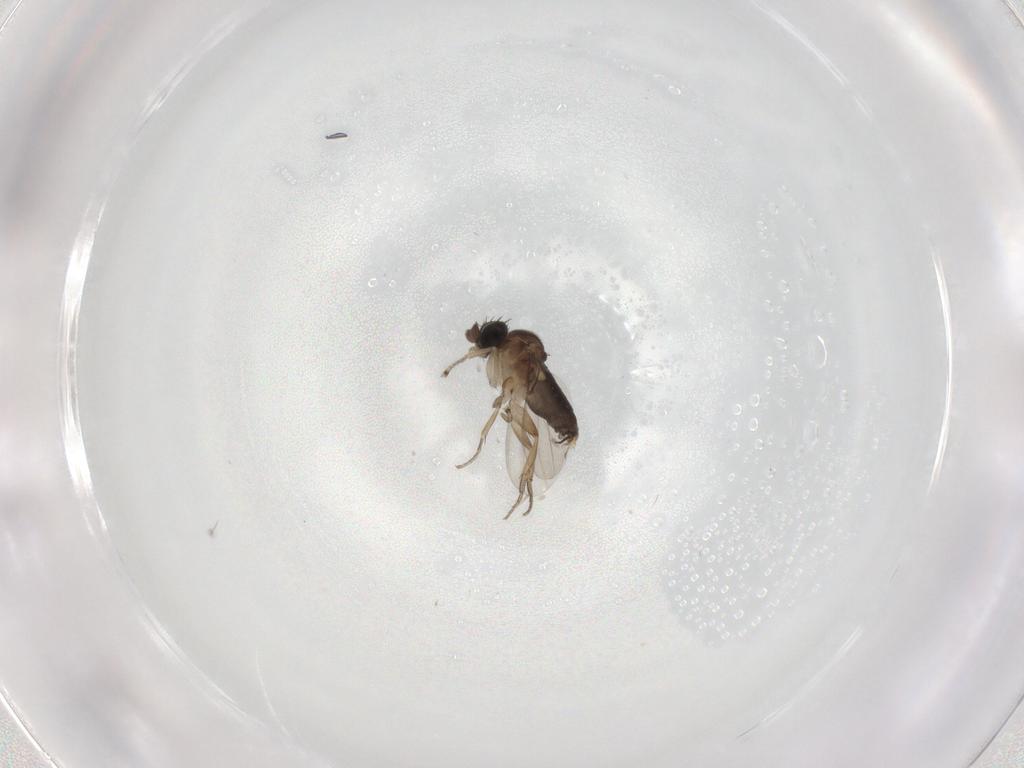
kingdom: Animalia
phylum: Arthropoda
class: Insecta
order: Diptera
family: Phoridae
